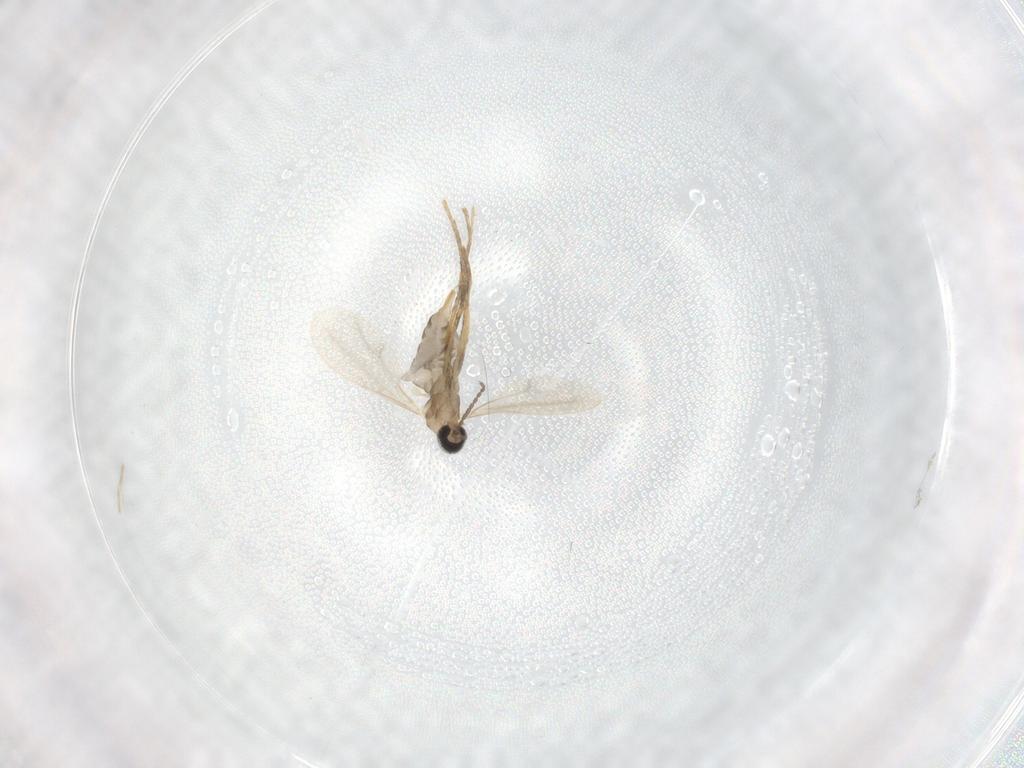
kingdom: Animalia
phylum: Arthropoda
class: Insecta
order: Diptera
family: Cecidomyiidae
